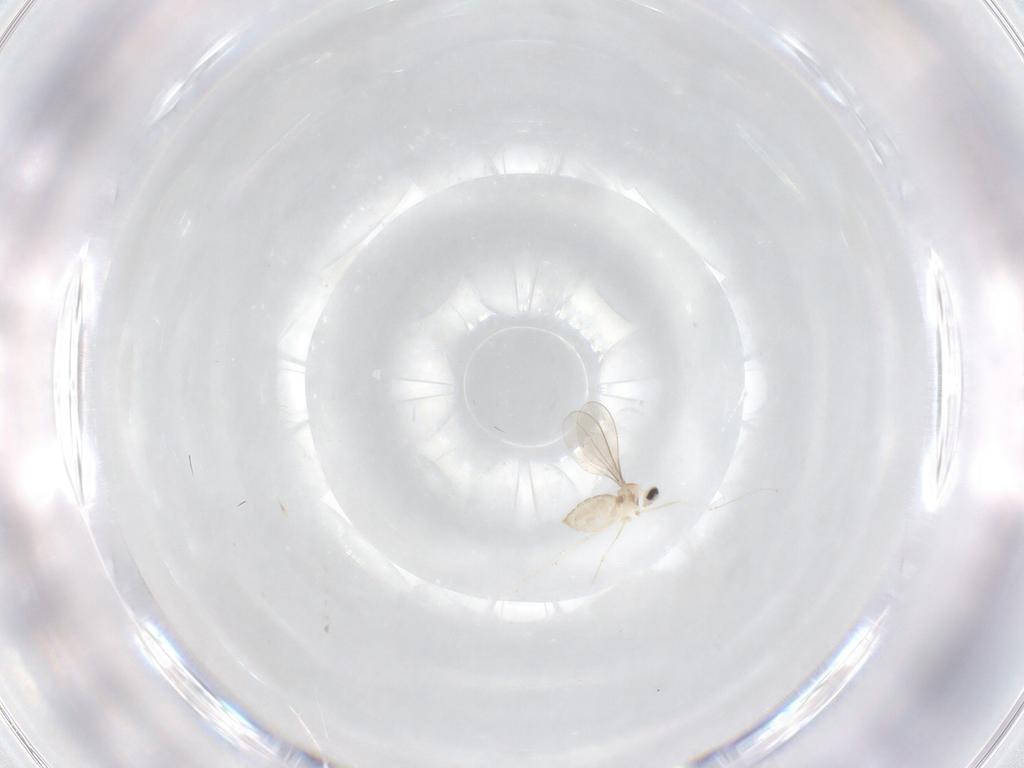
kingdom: Animalia
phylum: Arthropoda
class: Insecta
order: Diptera
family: Cecidomyiidae
